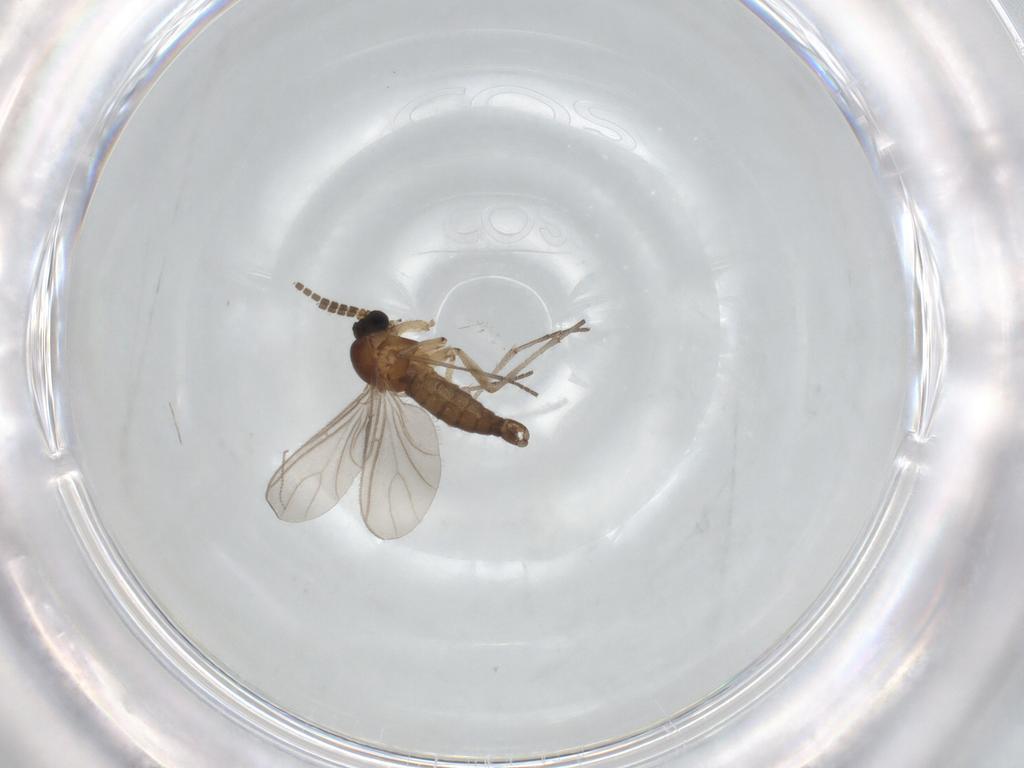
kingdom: Animalia
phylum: Arthropoda
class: Insecta
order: Diptera
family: Sciaridae
